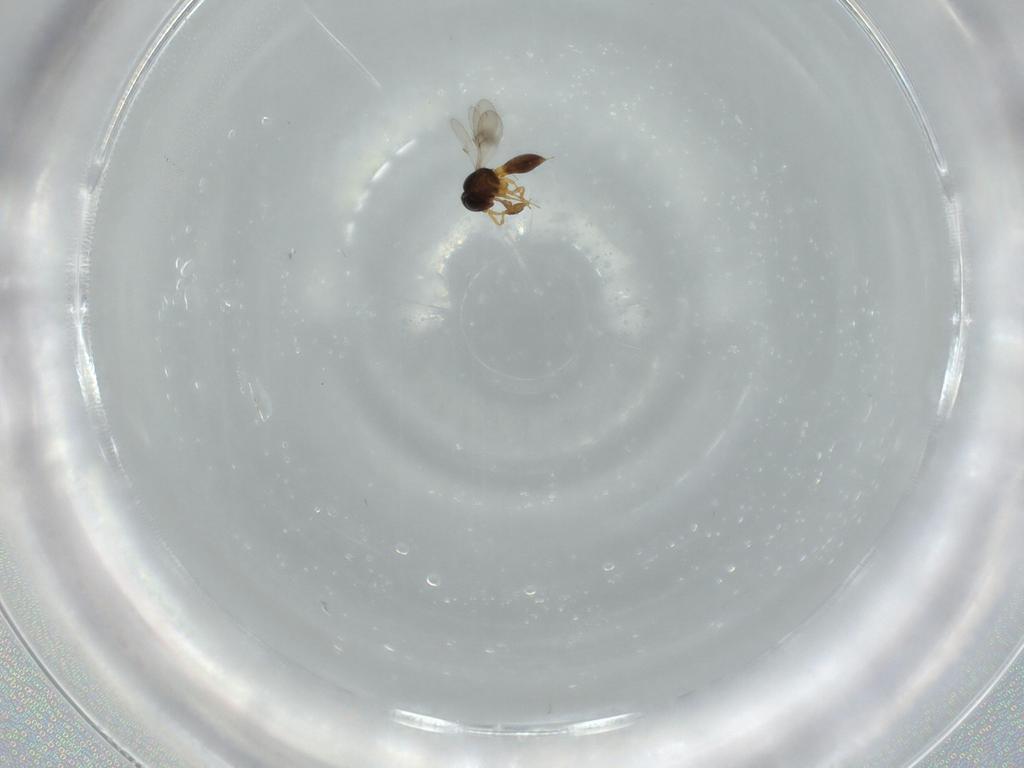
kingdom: Animalia
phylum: Arthropoda
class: Insecta
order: Hymenoptera
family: Scelionidae
